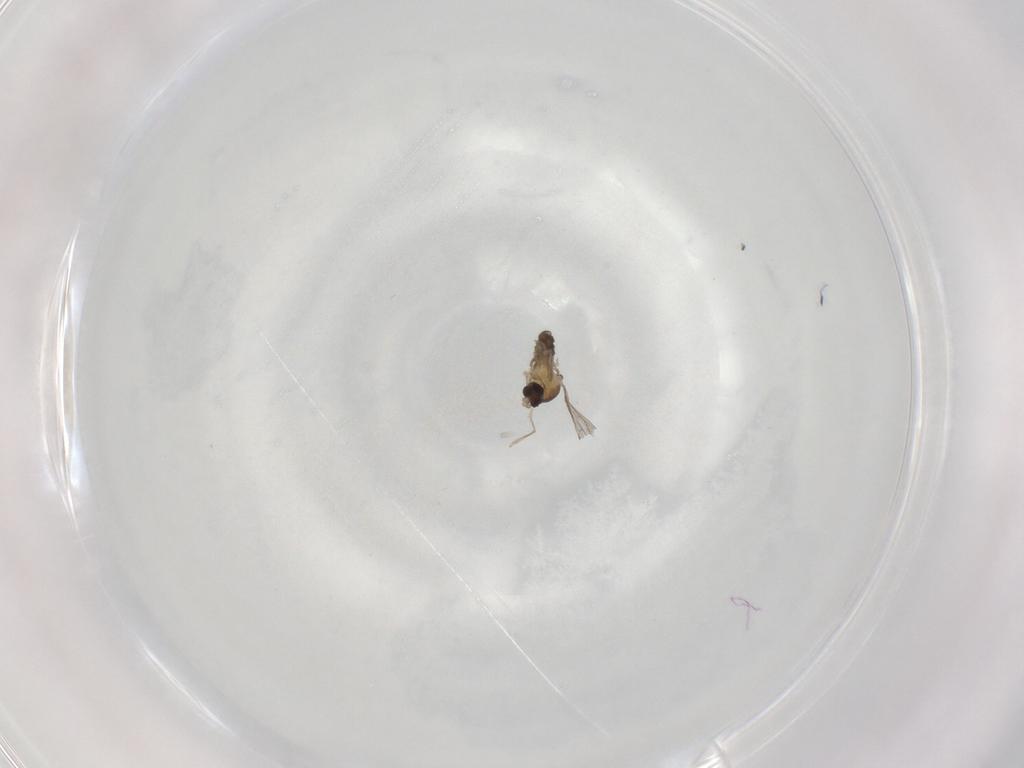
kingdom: Animalia
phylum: Arthropoda
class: Insecta
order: Diptera
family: Cecidomyiidae
